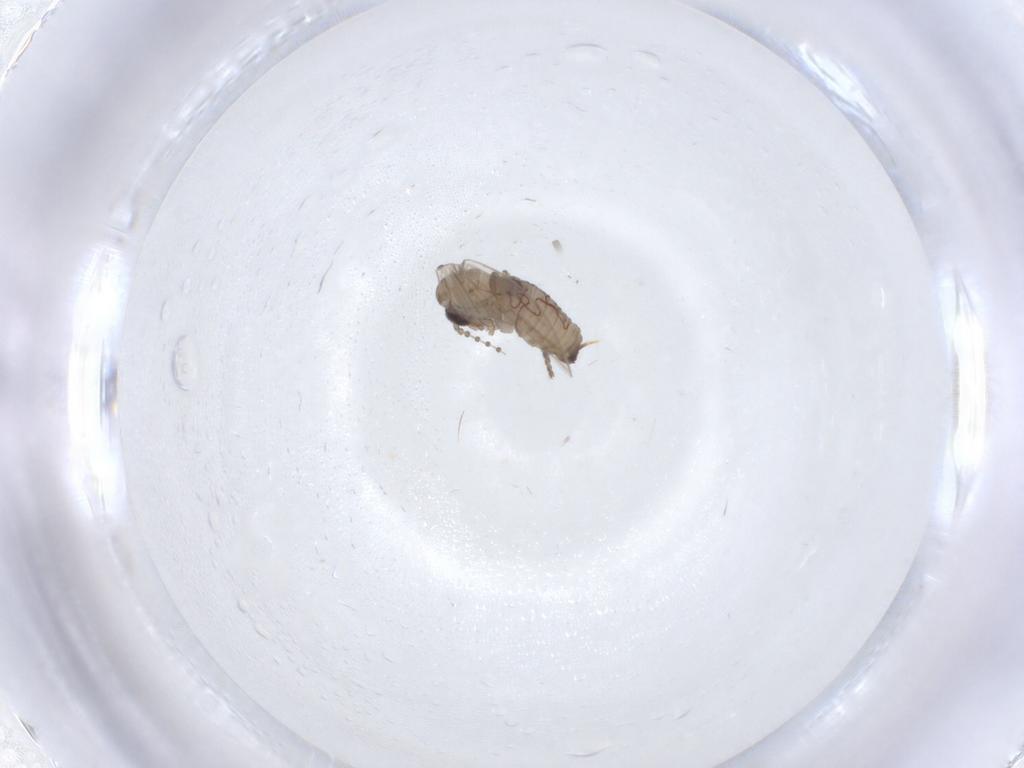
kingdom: Animalia
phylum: Arthropoda
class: Insecta
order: Diptera
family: Psychodidae
